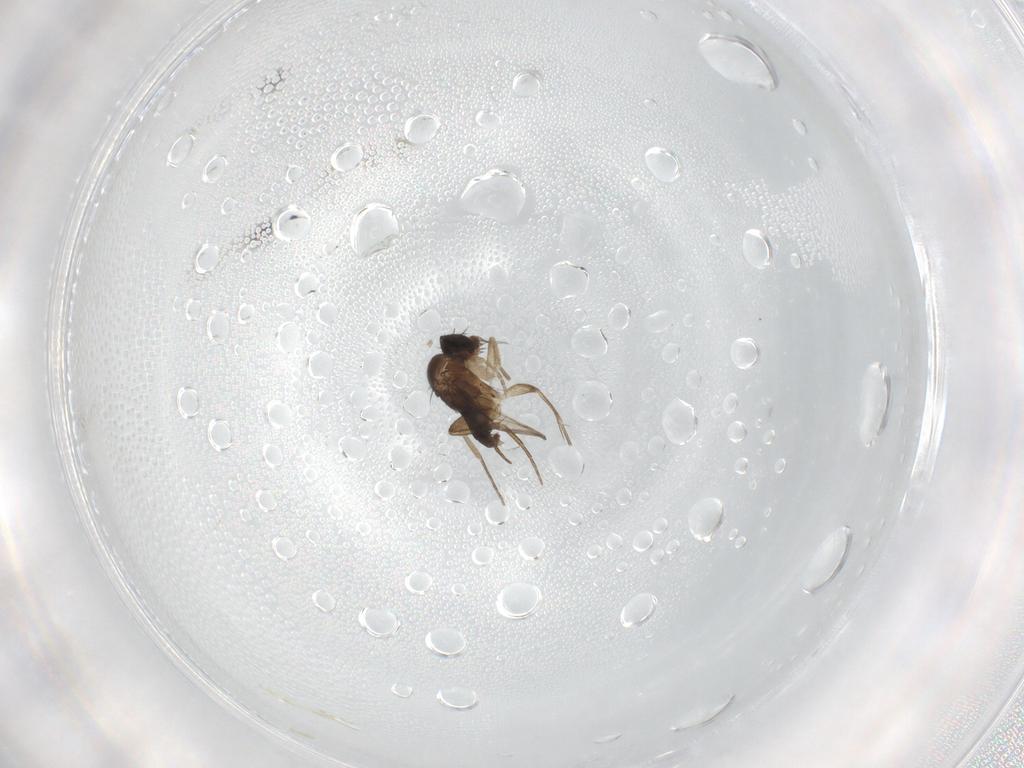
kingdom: Animalia
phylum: Arthropoda
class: Insecta
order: Diptera
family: Phoridae
